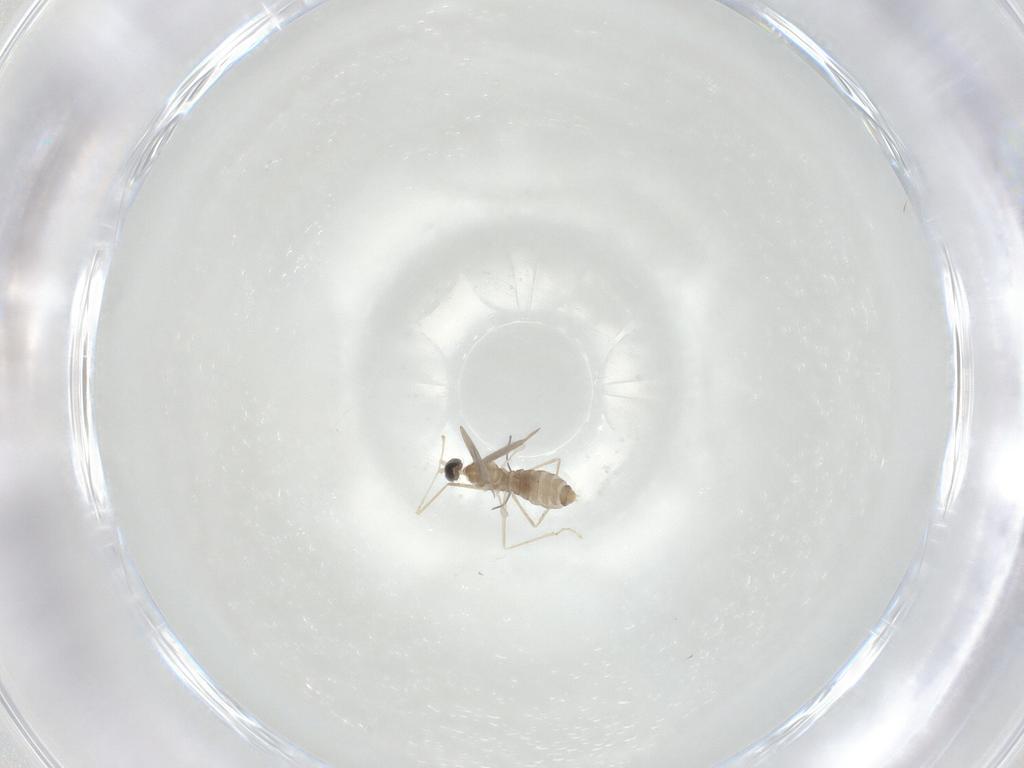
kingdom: Animalia
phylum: Arthropoda
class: Insecta
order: Diptera
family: Cecidomyiidae
